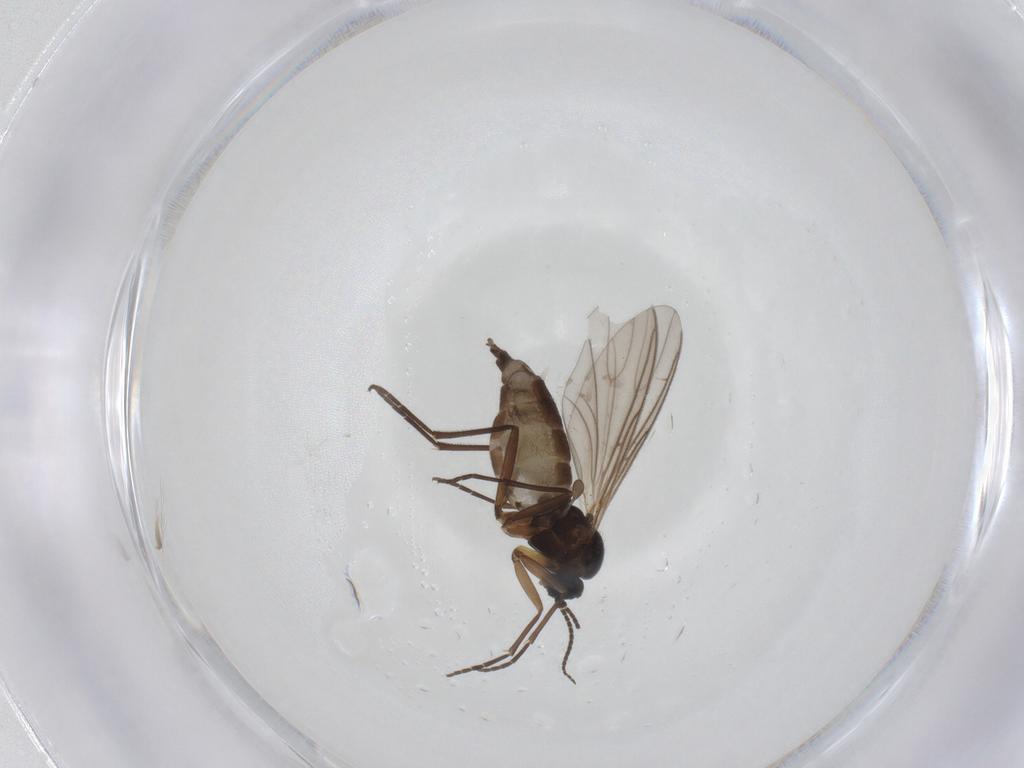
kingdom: Animalia
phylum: Arthropoda
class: Insecta
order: Diptera
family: Sciaridae
